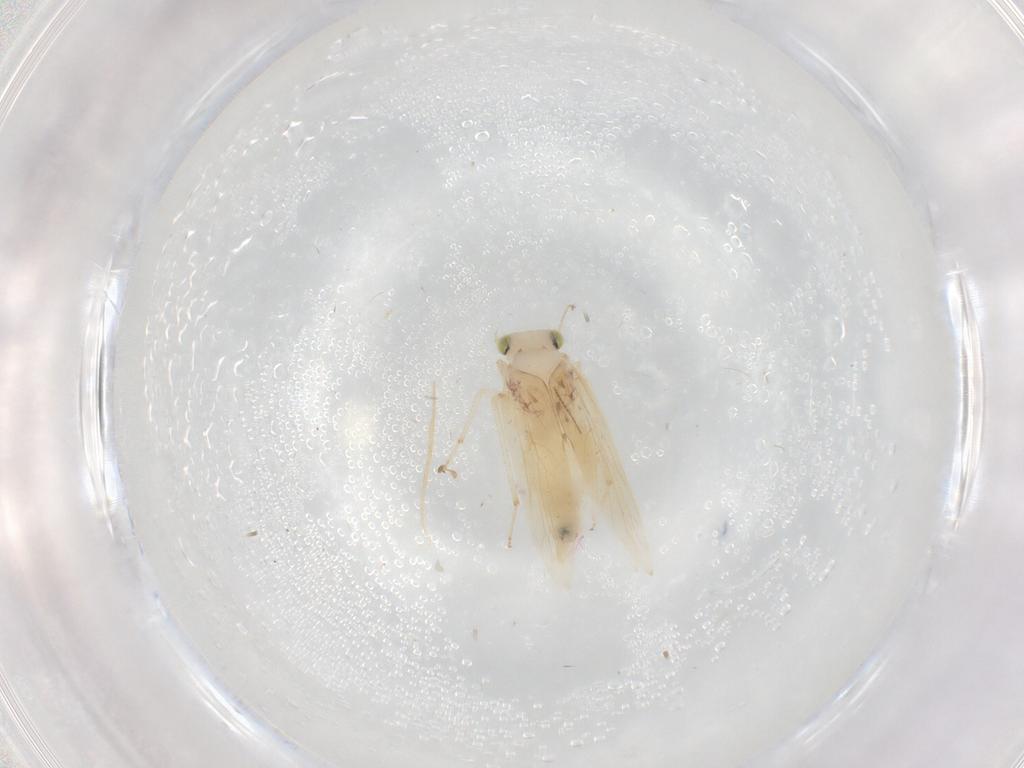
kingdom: Animalia
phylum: Arthropoda
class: Insecta
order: Psocodea
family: Lepidopsocidae
